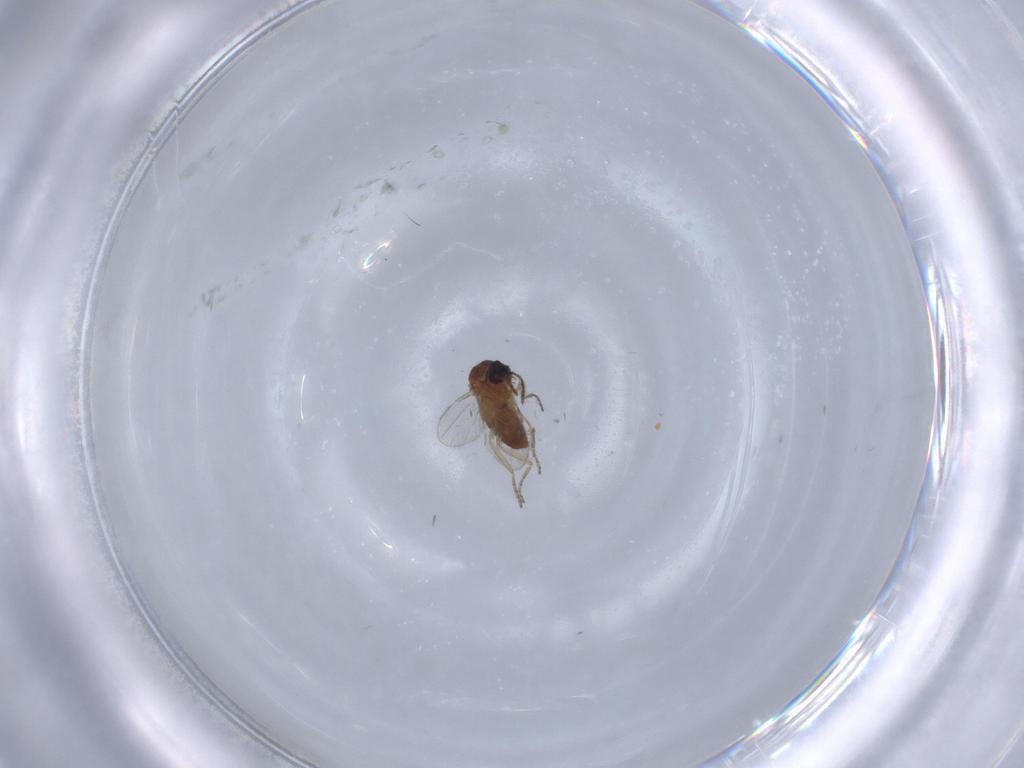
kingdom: Animalia
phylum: Arthropoda
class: Insecta
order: Diptera
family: Ceratopogonidae
